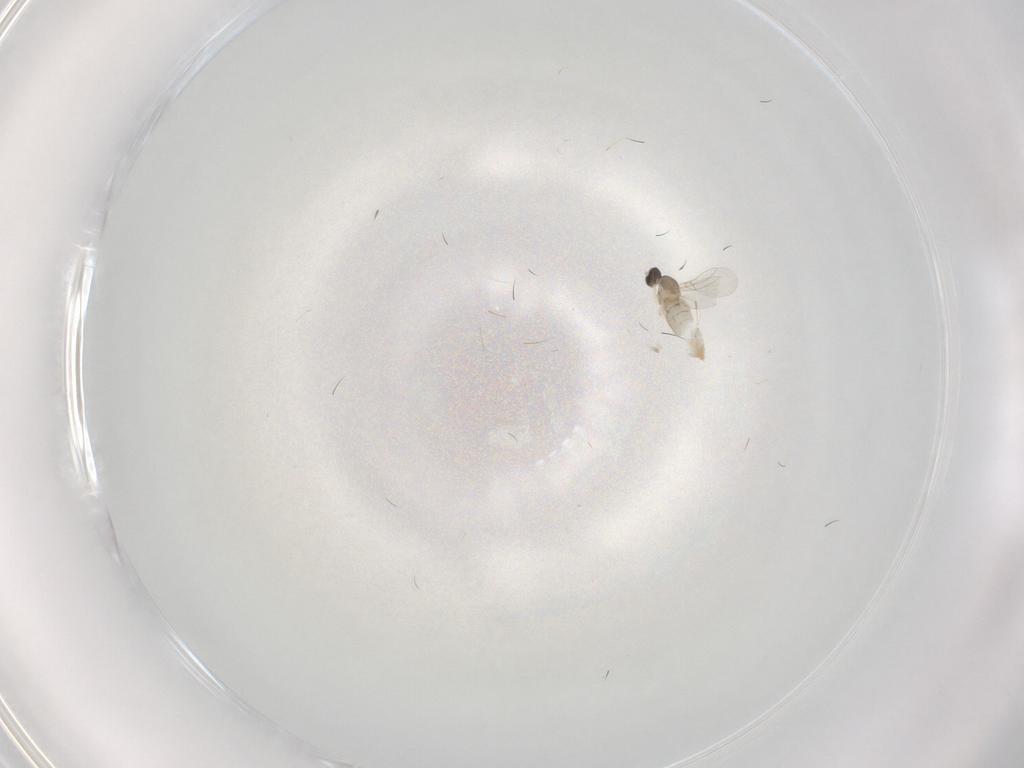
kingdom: Animalia
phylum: Arthropoda
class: Insecta
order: Diptera
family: Cecidomyiidae
